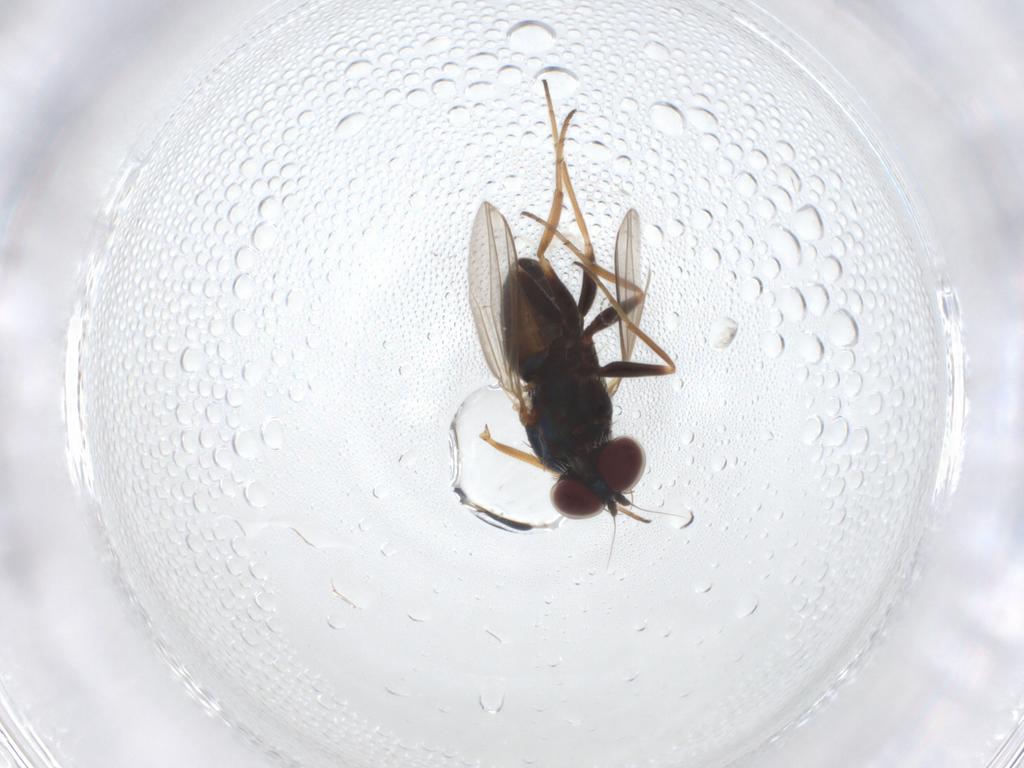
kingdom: Animalia
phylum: Arthropoda
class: Insecta
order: Diptera
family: Dolichopodidae
